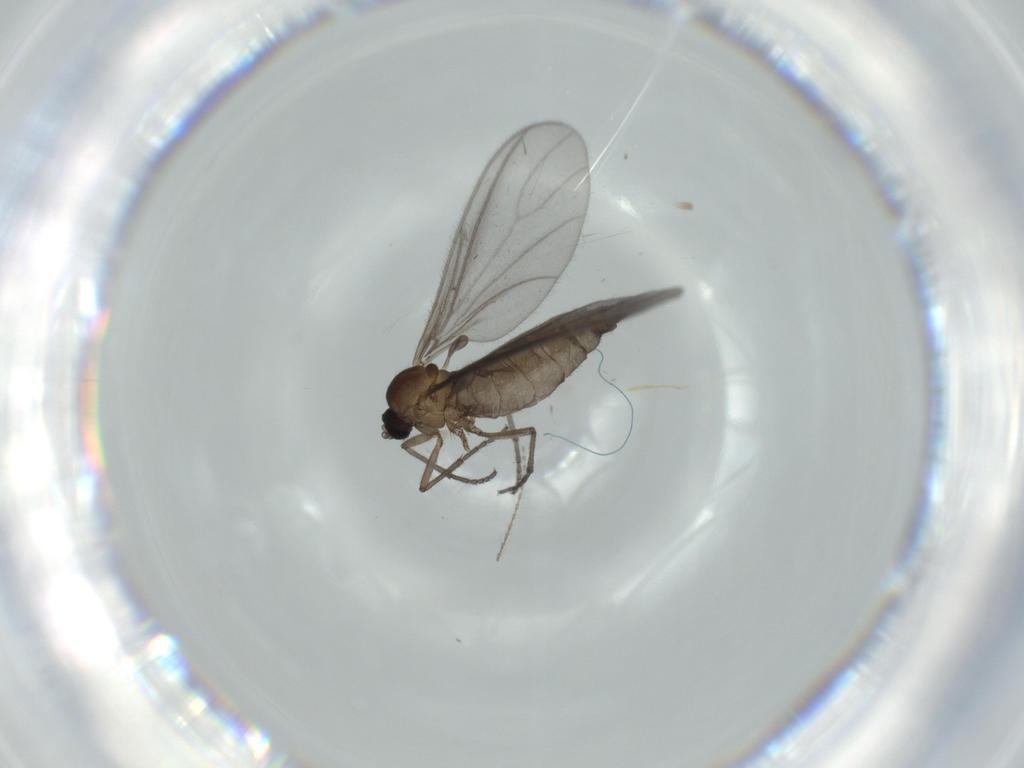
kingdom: Animalia
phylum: Arthropoda
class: Insecta
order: Diptera
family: Sciaridae
